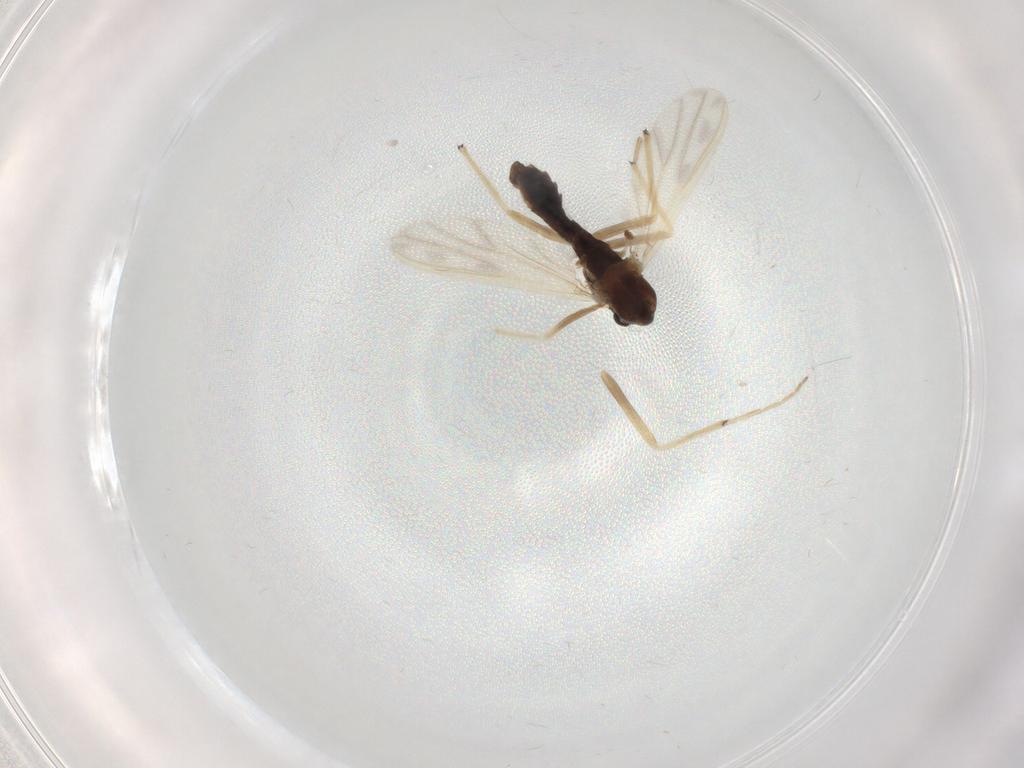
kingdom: Animalia
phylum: Arthropoda
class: Insecta
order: Diptera
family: Chironomidae
